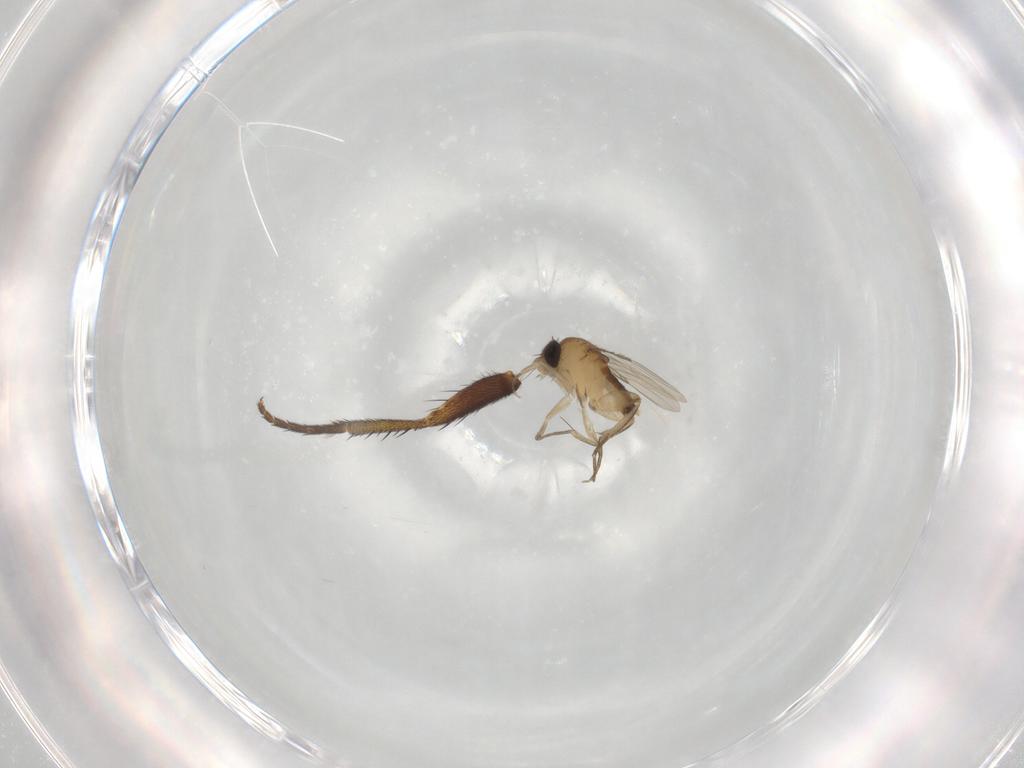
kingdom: Animalia
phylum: Arthropoda
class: Insecta
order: Diptera
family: Tachinidae
